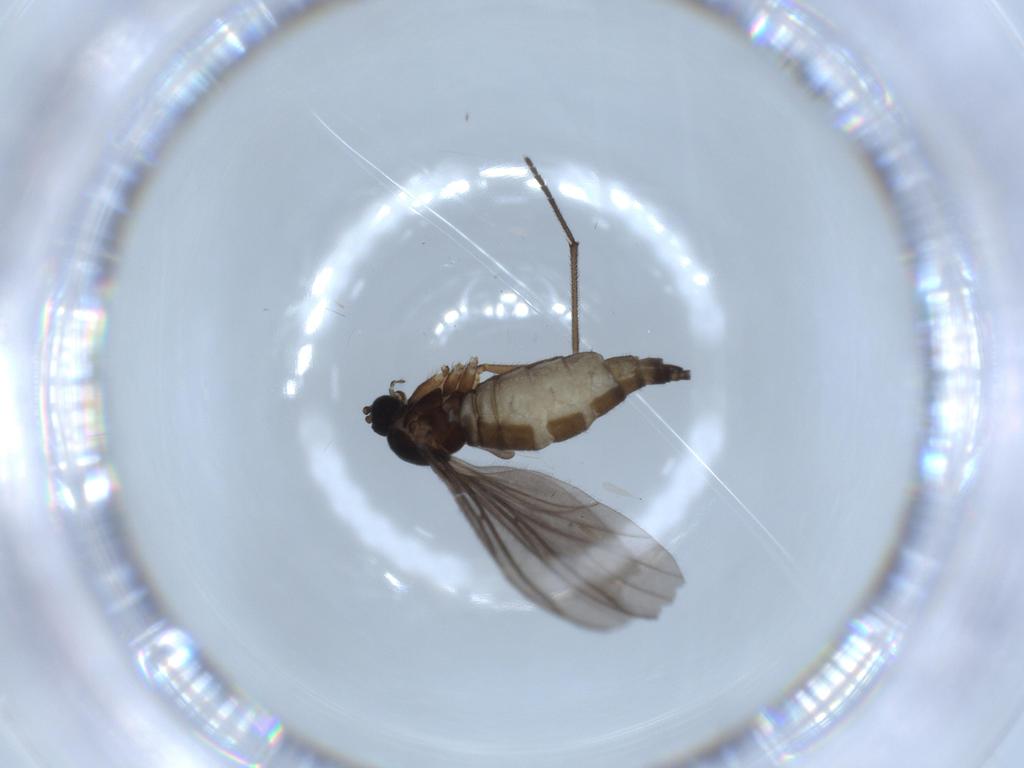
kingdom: Animalia
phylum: Arthropoda
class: Insecta
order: Diptera
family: Sciaridae
